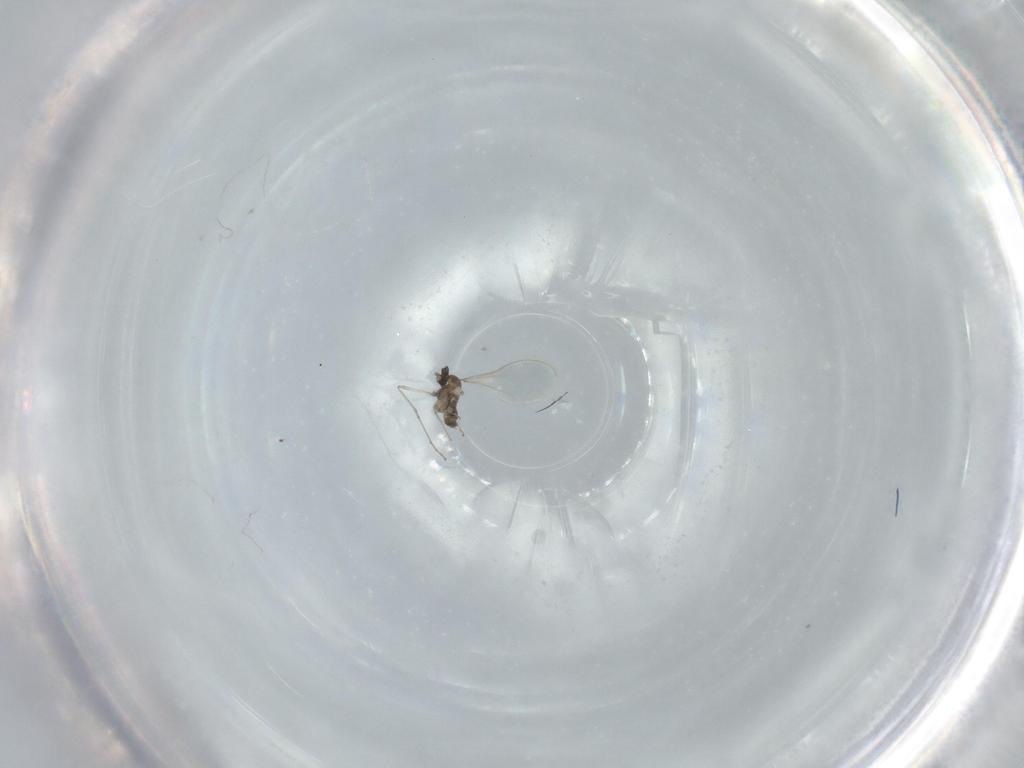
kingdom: Animalia
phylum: Arthropoda
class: Insecta
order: Diptera
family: Cecidomyiidae
